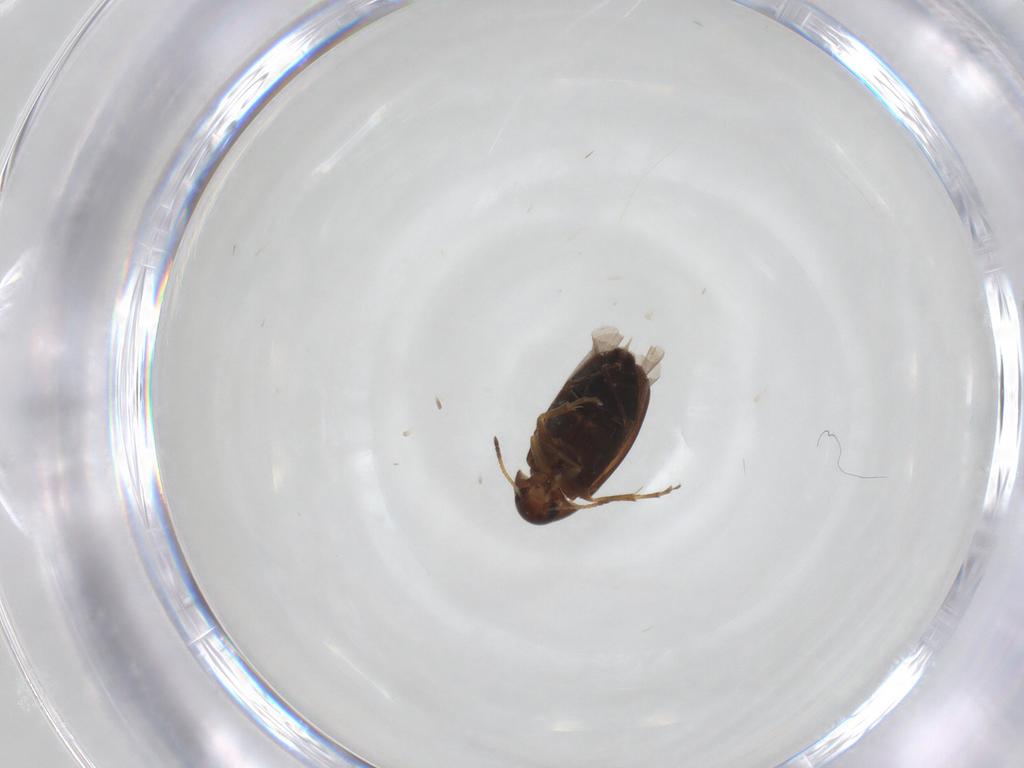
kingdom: Animalia
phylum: Arthropoda
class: Insecta
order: Coleoptera
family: Scraptiidae
